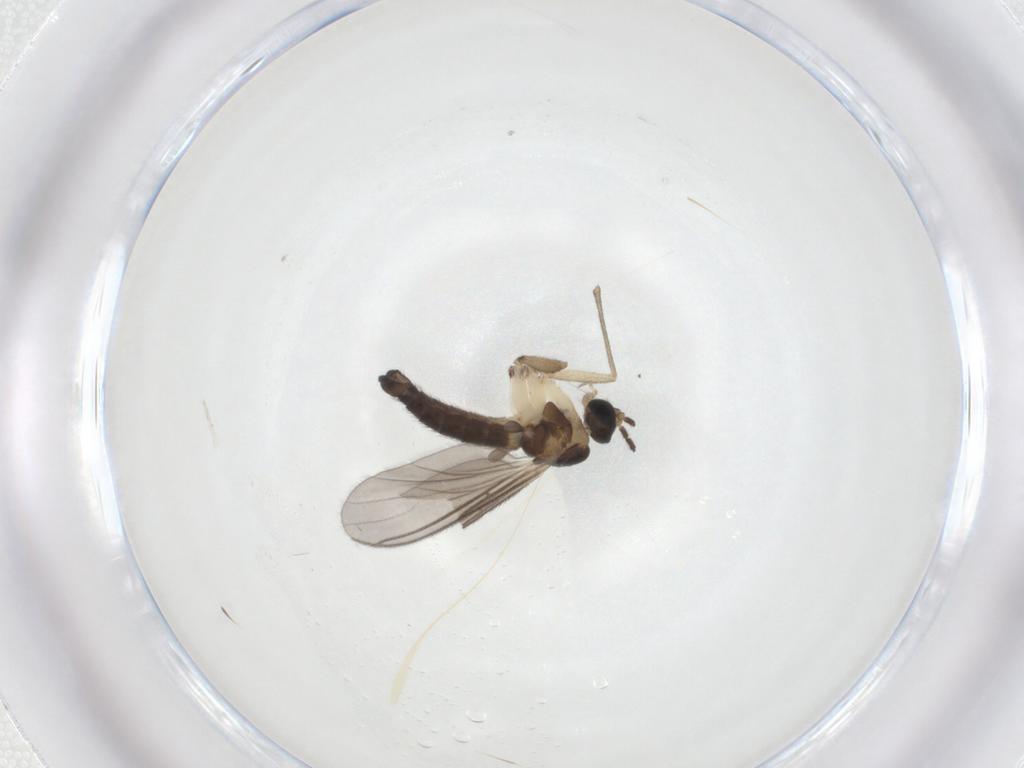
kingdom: Animalia
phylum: Arthropoda
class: Insecta
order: Diptera
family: Sciaridae
